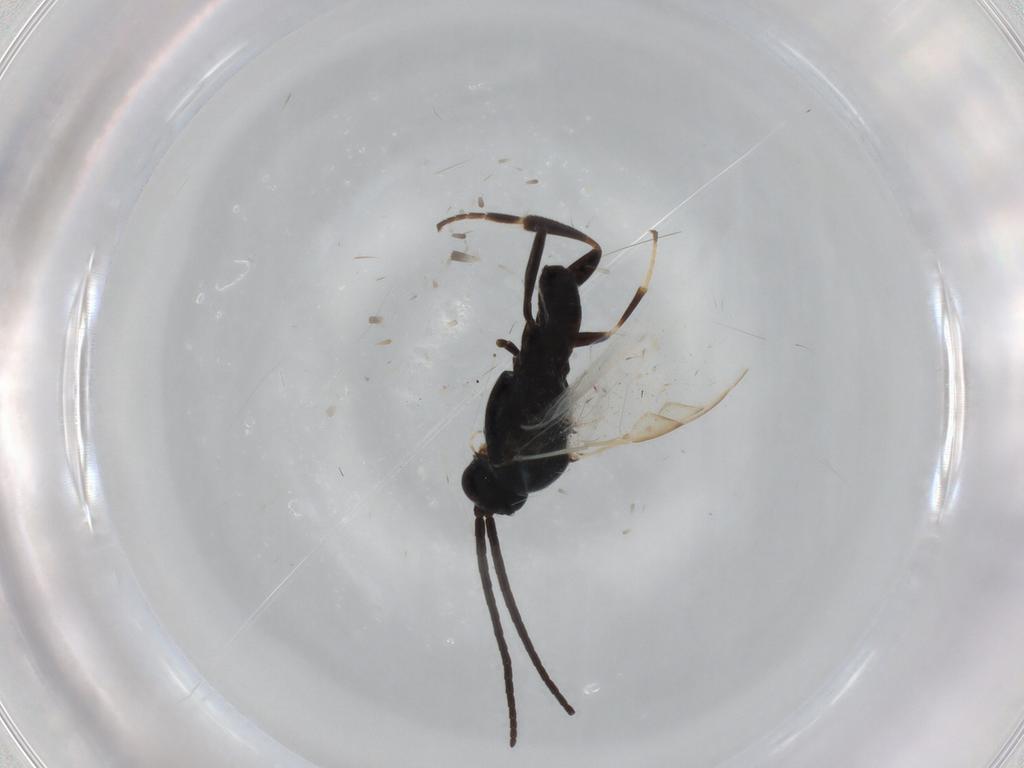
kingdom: Animalia
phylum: Arthropoda
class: Insecta
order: Hymenoptera
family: Braconidae
